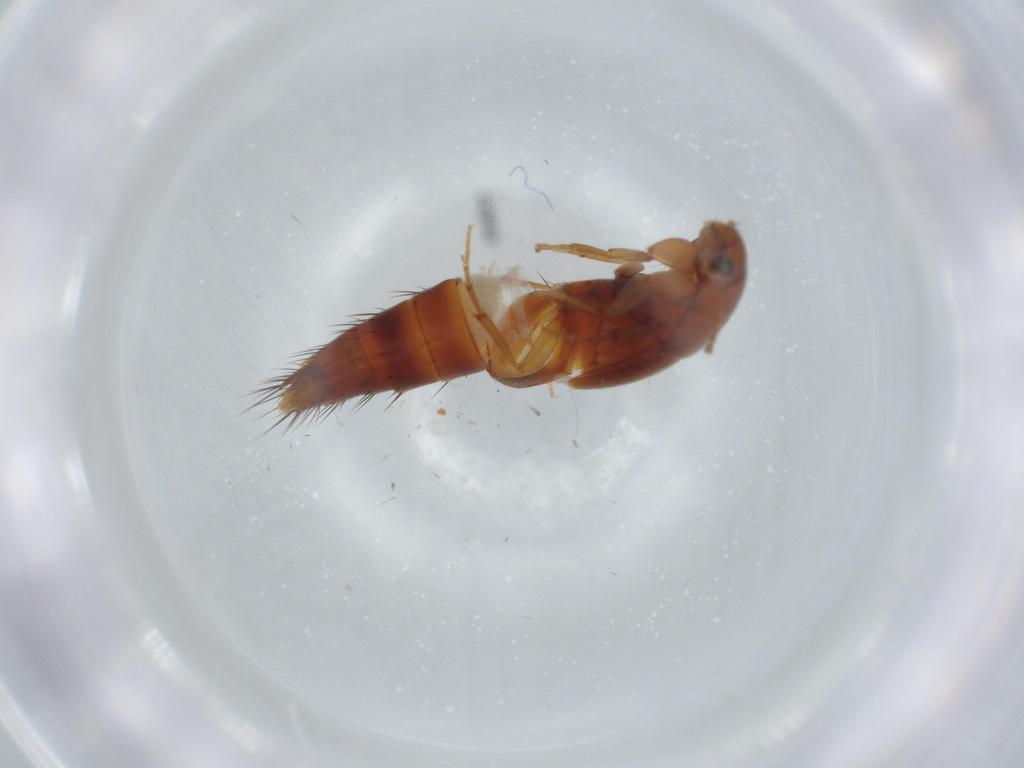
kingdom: Animalia
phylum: Arthropoda
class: Insecta
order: Coleoptera
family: Staphylinidae
